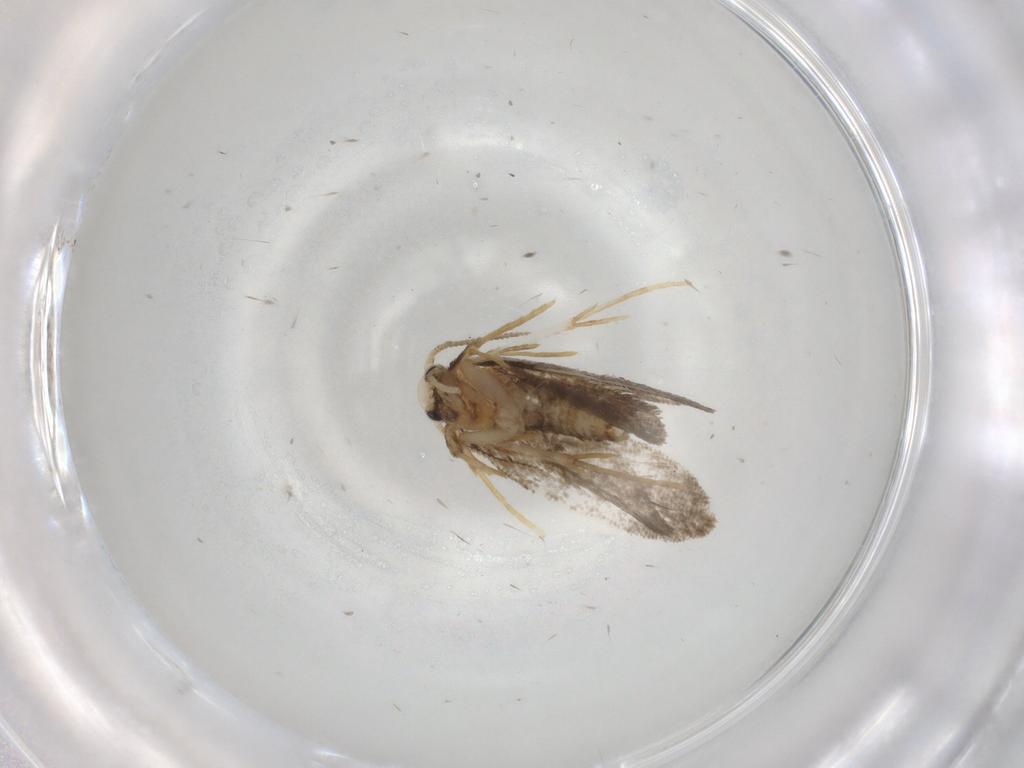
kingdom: Animalia
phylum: Arthropoda
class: Insecta
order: Lepidoptera
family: Psychidae
